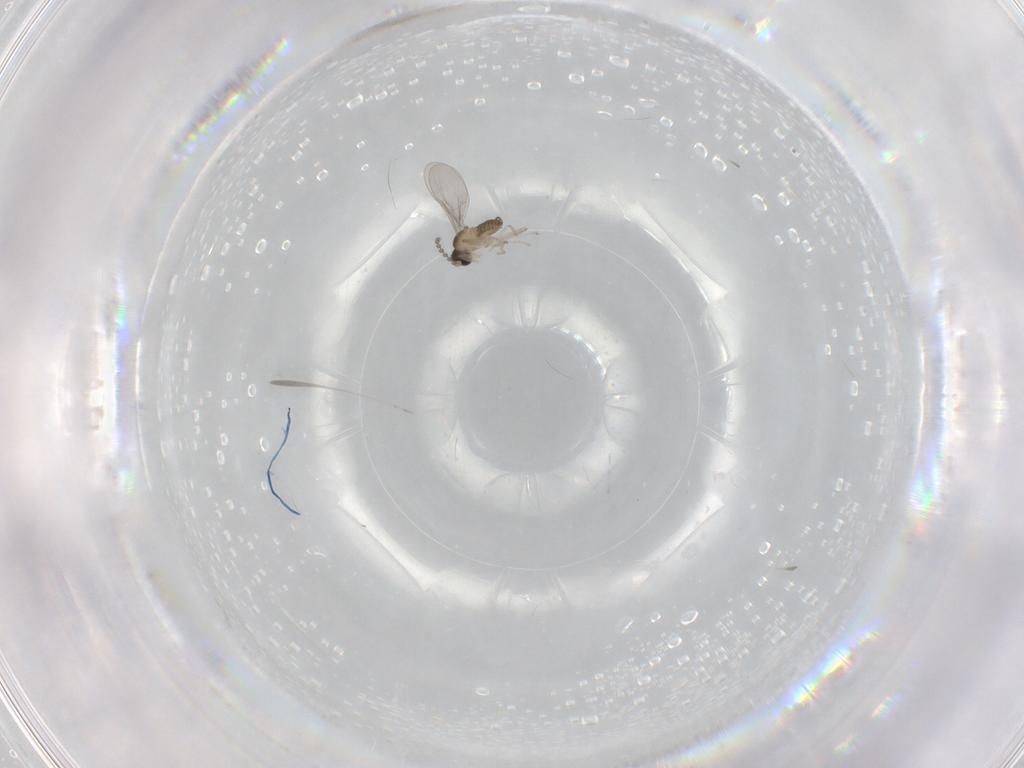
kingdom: Animalia
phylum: Arthropoda
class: Insecta
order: Diptera
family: Cecidomyiidae
